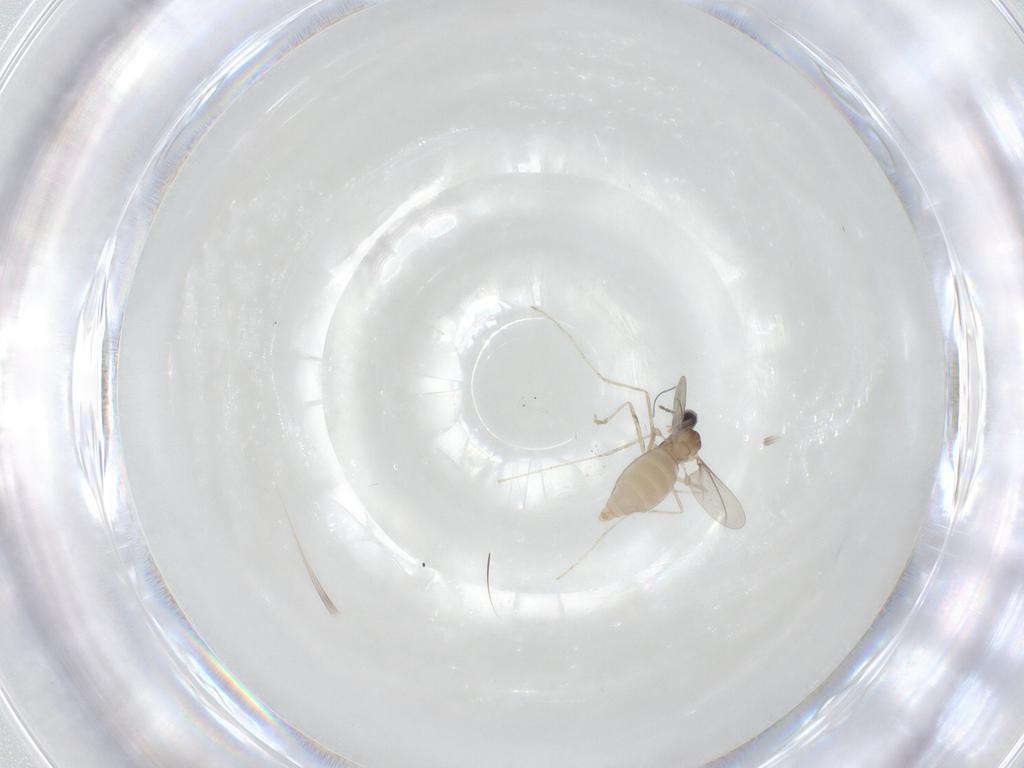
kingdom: Animalia
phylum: Arthropoda
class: Insecta
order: Diptera
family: Cecidomyiidae
